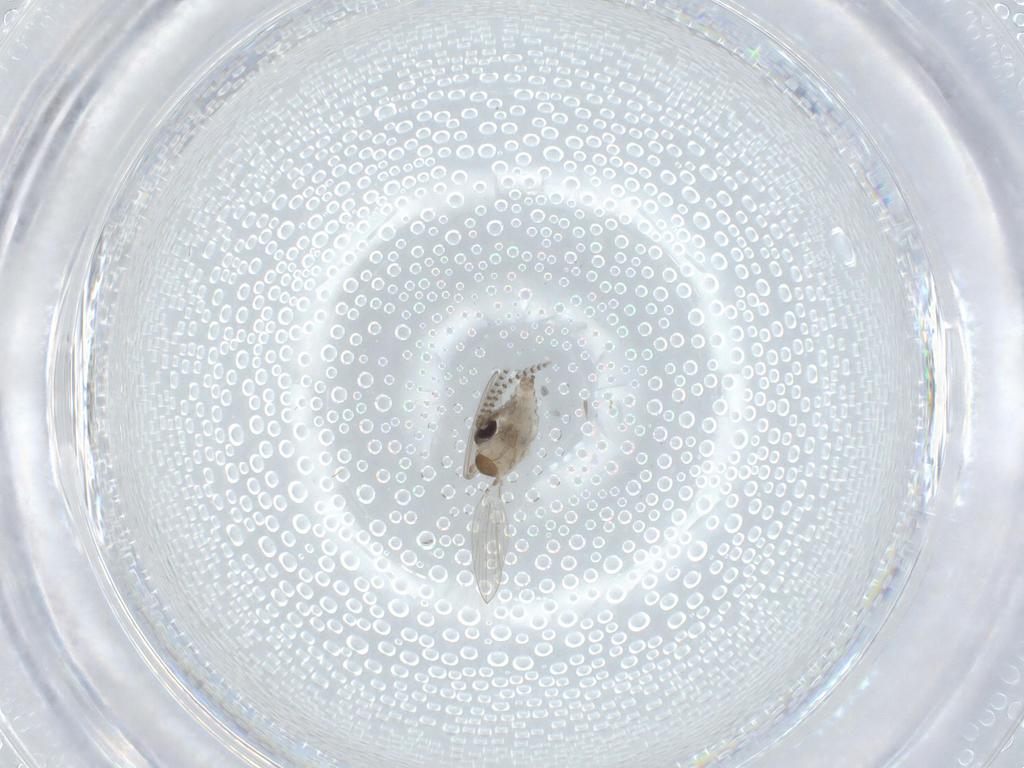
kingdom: Animalia
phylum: Arthropoda
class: Insecta
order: Diptera
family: Psychodidae
